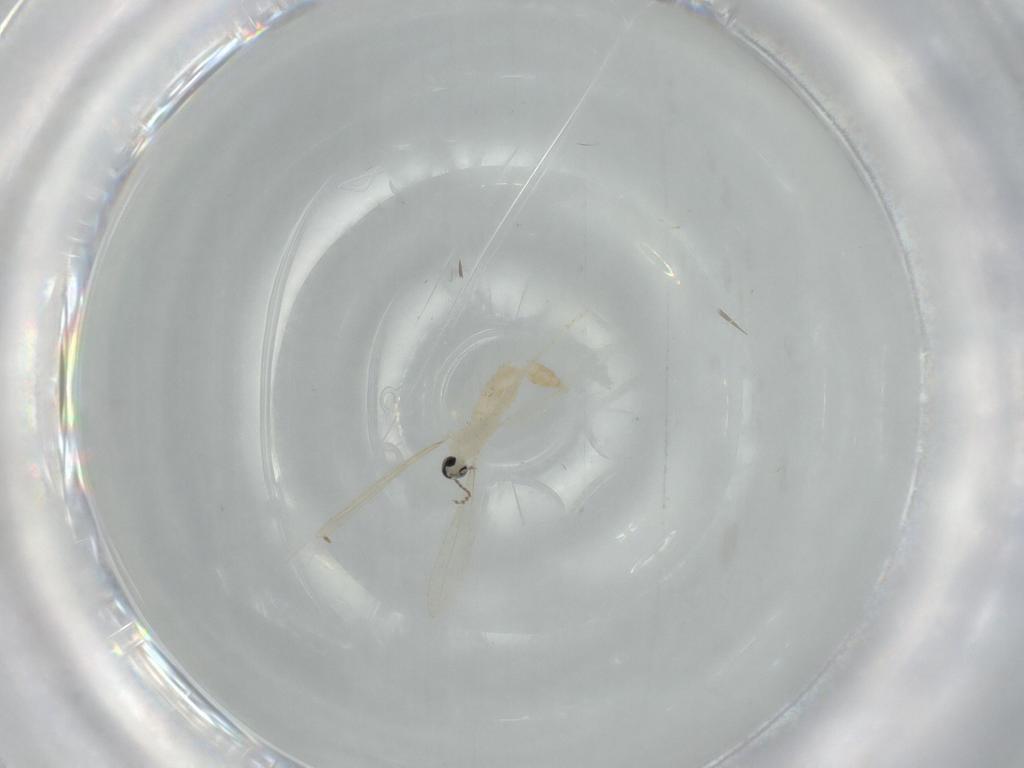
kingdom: Animalia
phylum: Arthropoda
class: Insecta
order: Diptera
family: Cecidomyiidae
